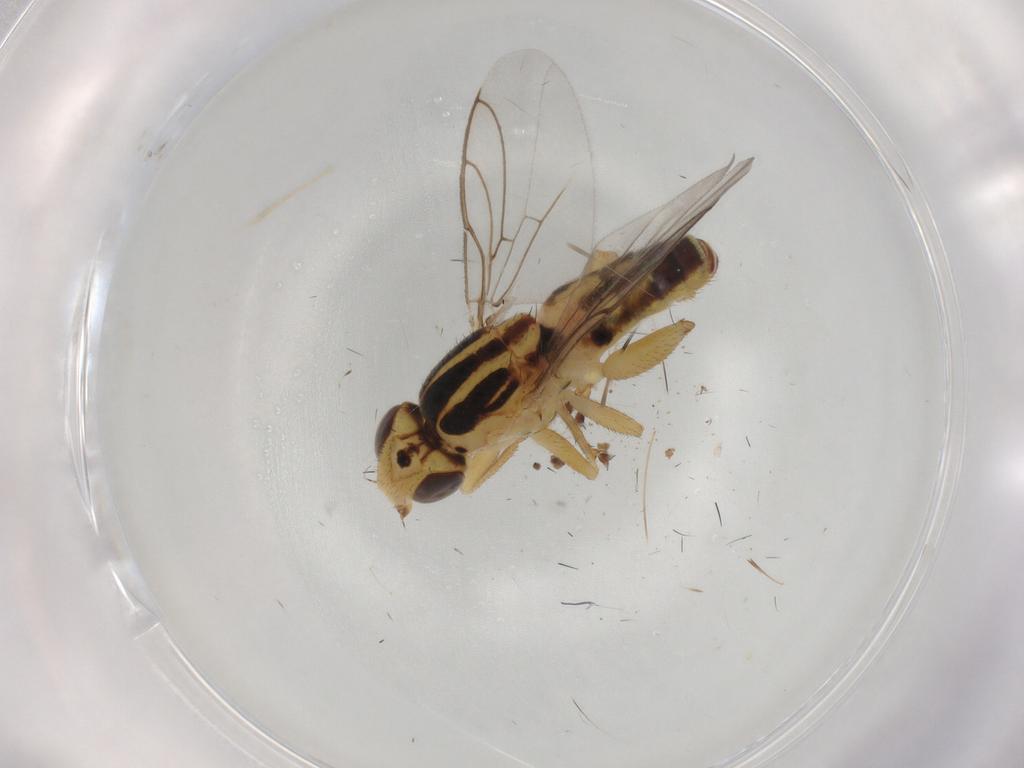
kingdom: Animalia
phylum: Arthropoda
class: Insecta
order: Diptera
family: Chloropidae
